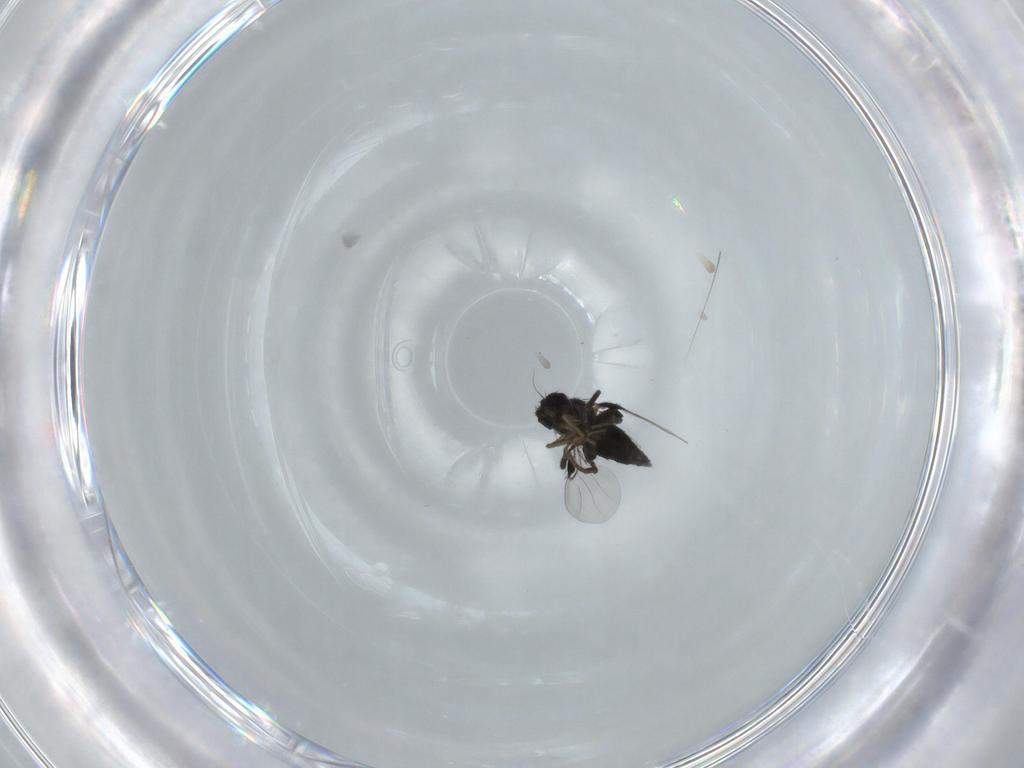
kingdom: Animalia
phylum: Arthropoda
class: Insecta
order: Diptera
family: Phoridae
